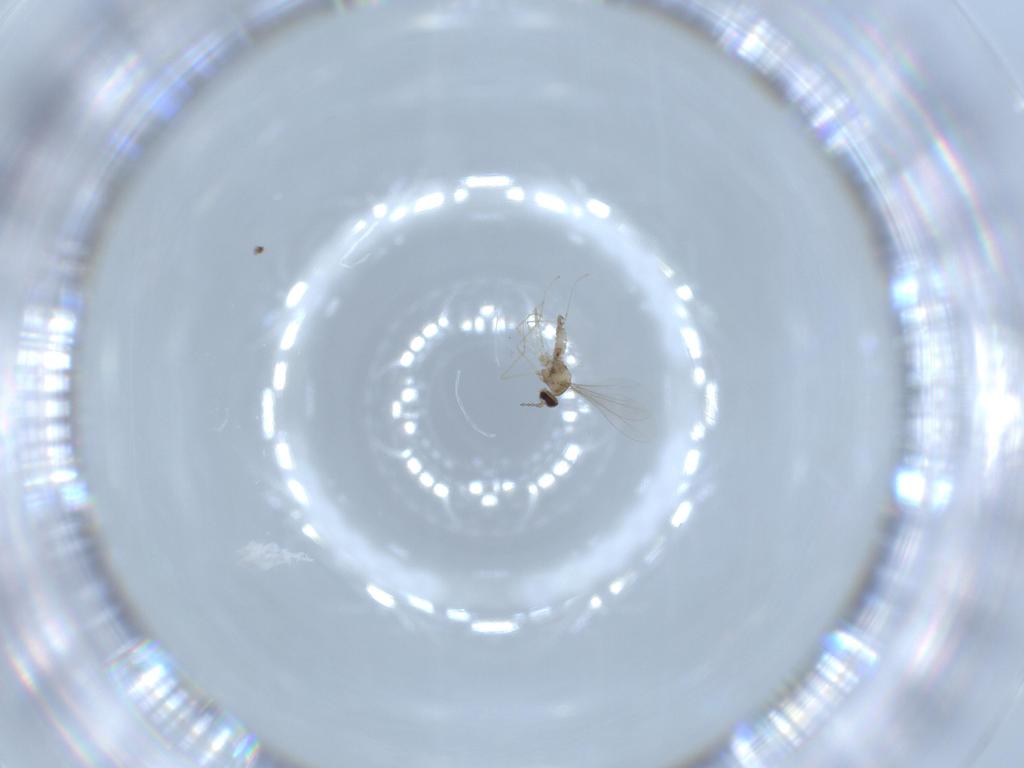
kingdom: Animalia
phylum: Arthropoda
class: Insecta
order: Diptera
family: Cecidomyiidae
